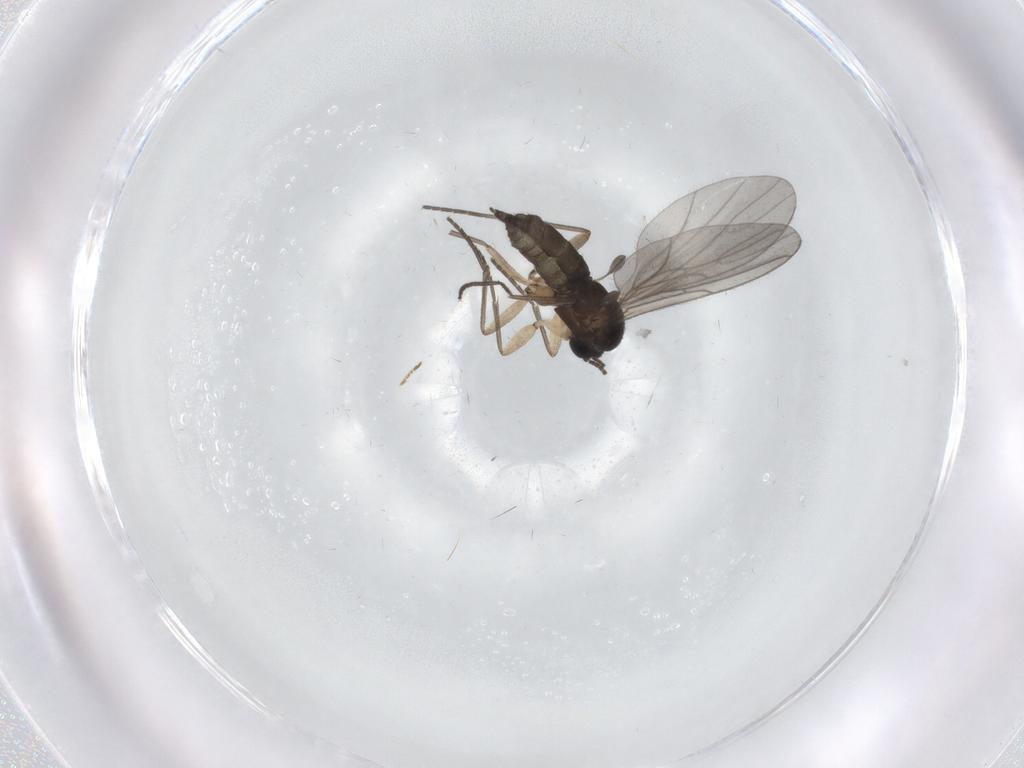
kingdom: Animalia
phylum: Arthropoda
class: Insecta
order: Diptera
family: Sciaridae
